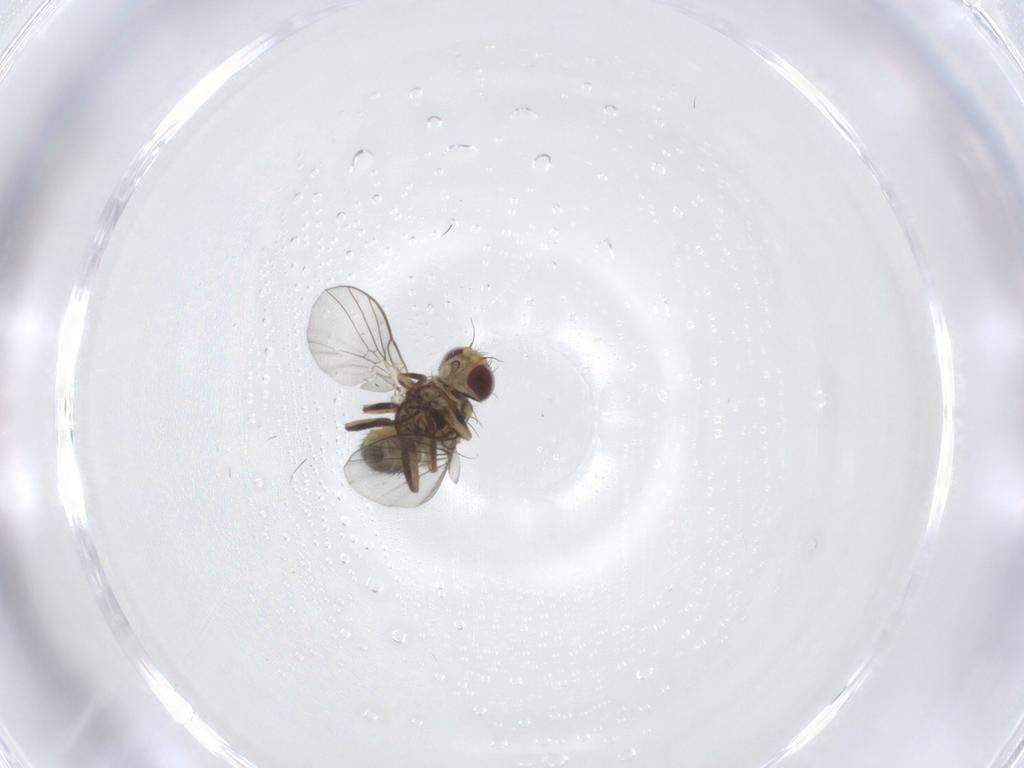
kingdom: Animalia
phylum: Arthropoda
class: Insecta
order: Diptera
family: Agromyzidae
